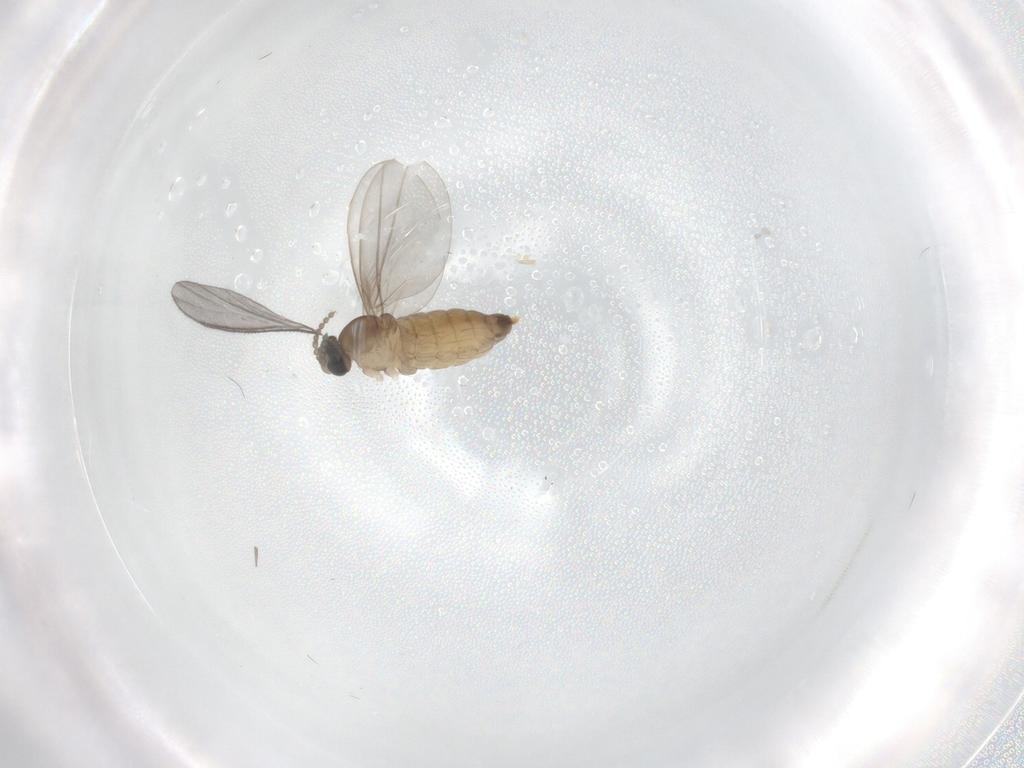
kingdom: Animalia
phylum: Arthropoda
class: Insecta
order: Diptera
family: Cecidomyiidae
